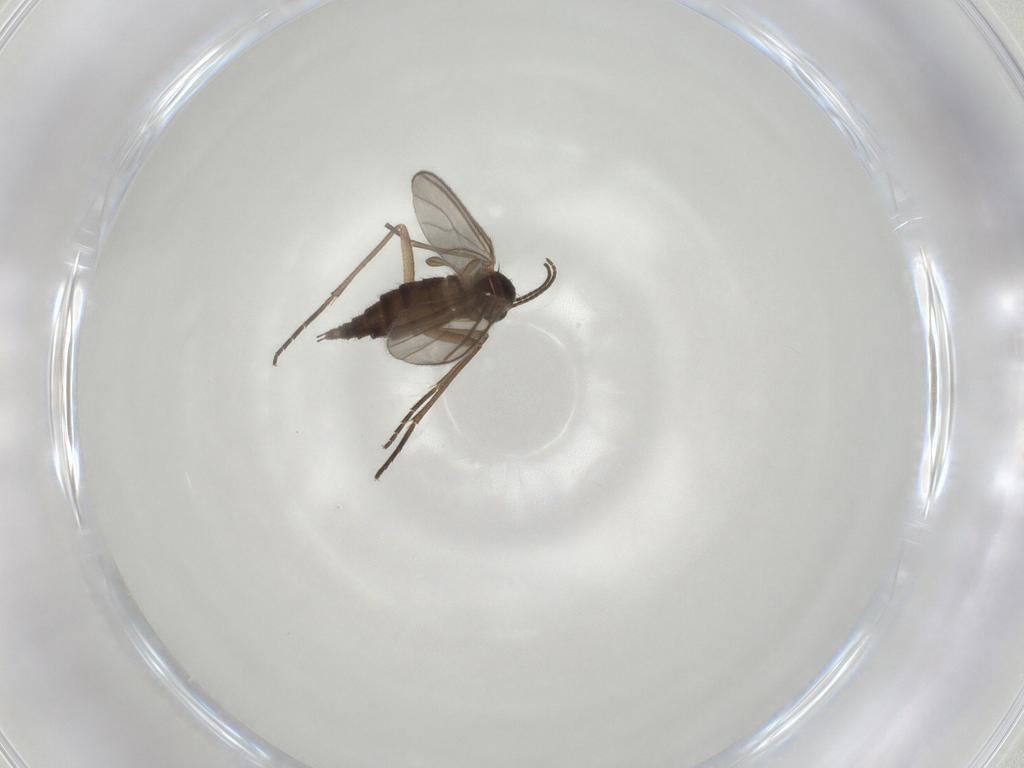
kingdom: Animalia
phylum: Arthropoda
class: Insecta
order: Diptera
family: Sciaridae
